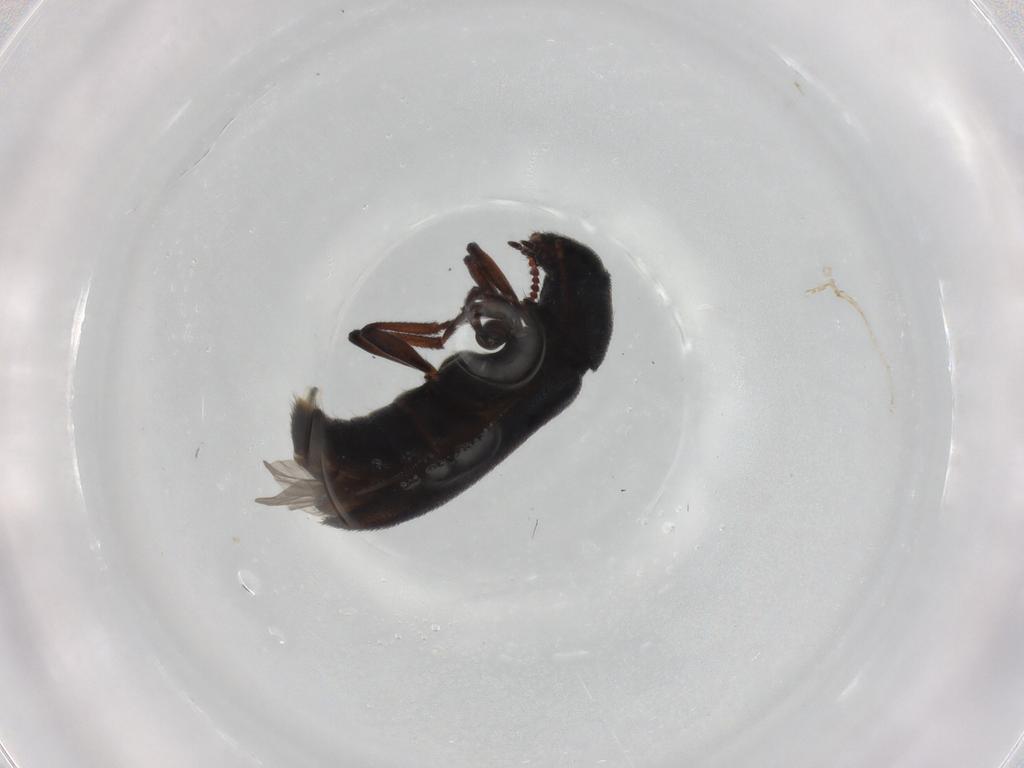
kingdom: Animalia
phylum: Arthropoda
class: Insecta
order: Coleoptera
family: Melyridae
